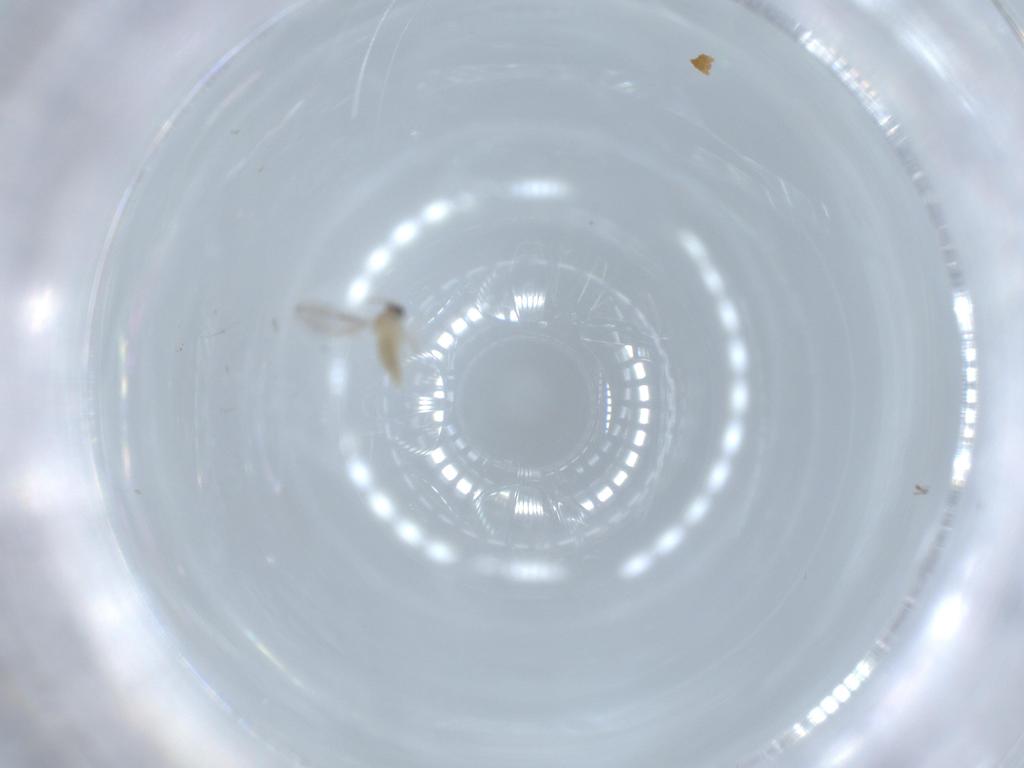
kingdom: Animalia
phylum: Arthropoda
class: Insecta
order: Diptera
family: Cecidomyiidae
